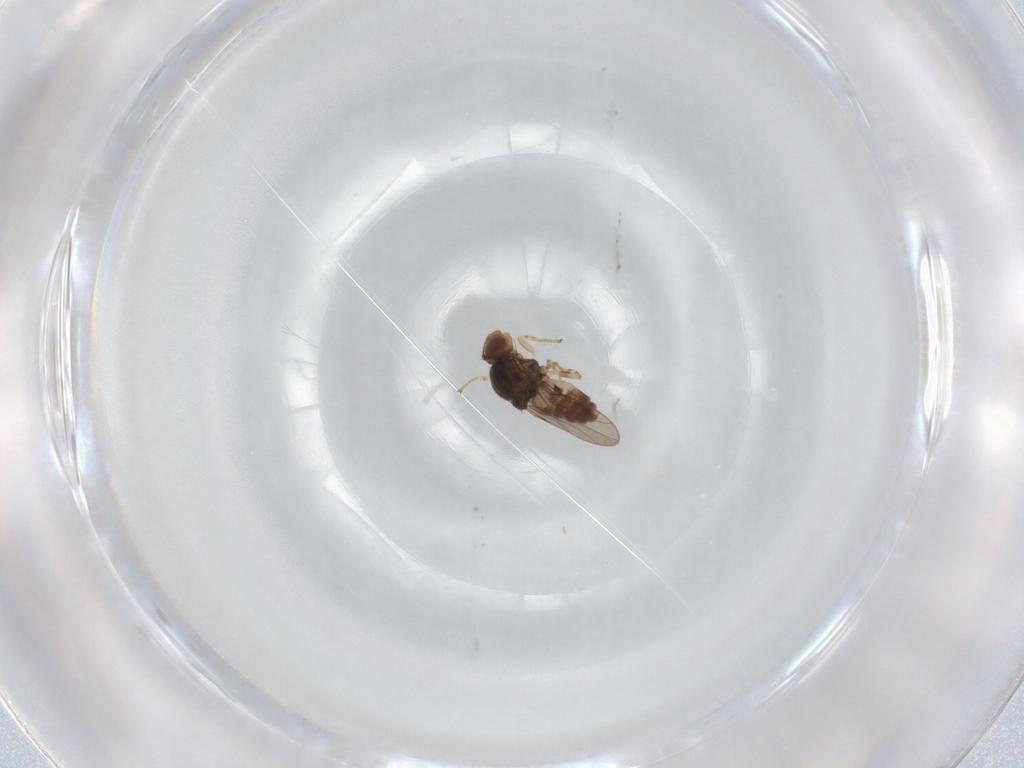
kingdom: Animalia
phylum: Arthropoda
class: Insecta
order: Diptera
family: Chloropidae
